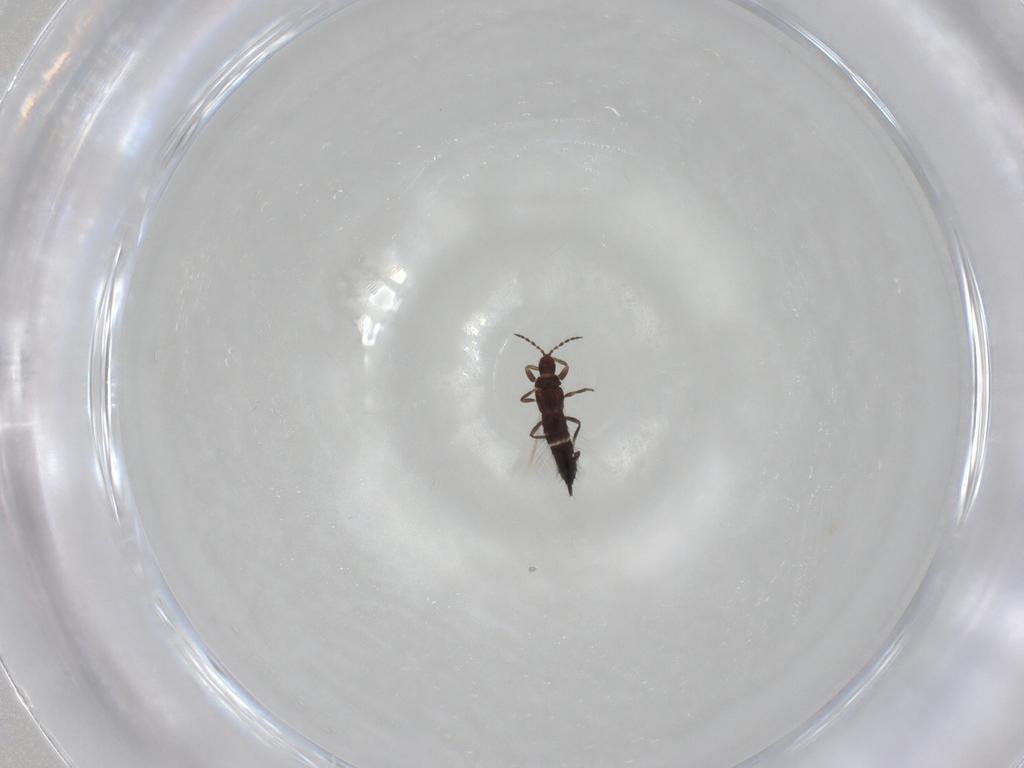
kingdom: Animalia
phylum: Arthropoda
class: Insecta
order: Thysanoptera
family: Phlaeothripidae
